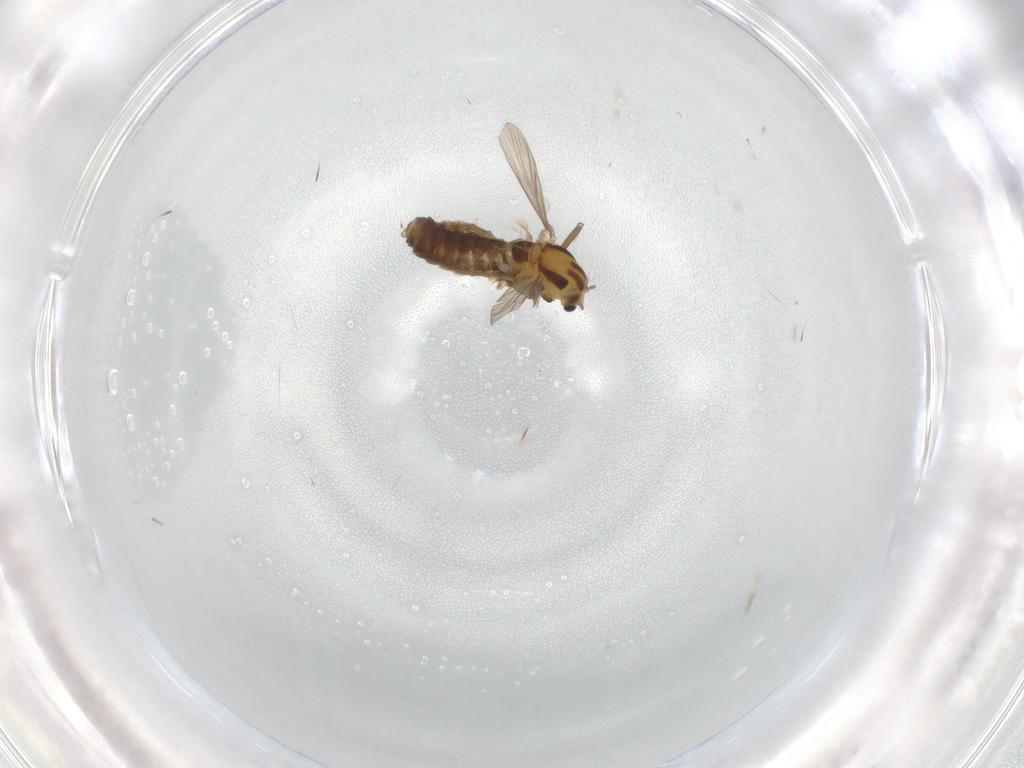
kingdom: Animalia
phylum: Arthropoda
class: Insecta
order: Diptera
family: Chironomidae
